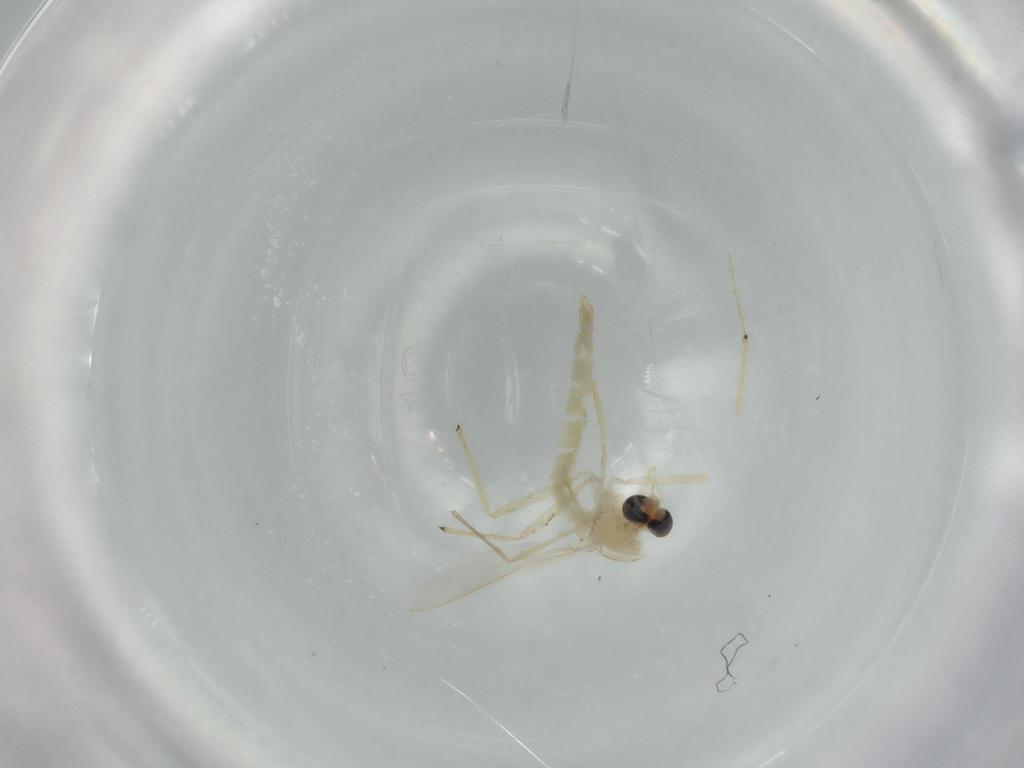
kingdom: Animalia
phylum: Arthropoda
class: Insecta
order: Diptera
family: Chironomidae
